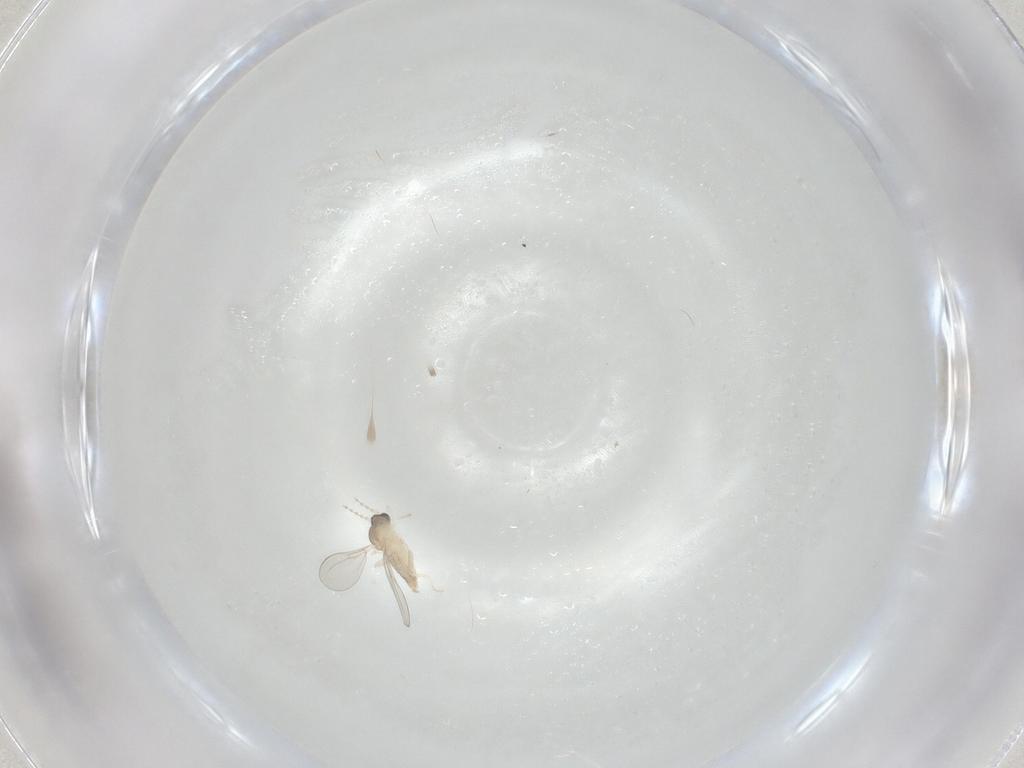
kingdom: Animalia
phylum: Arthropoda
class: Insecta
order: Diptera
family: Cecidomyiidae
